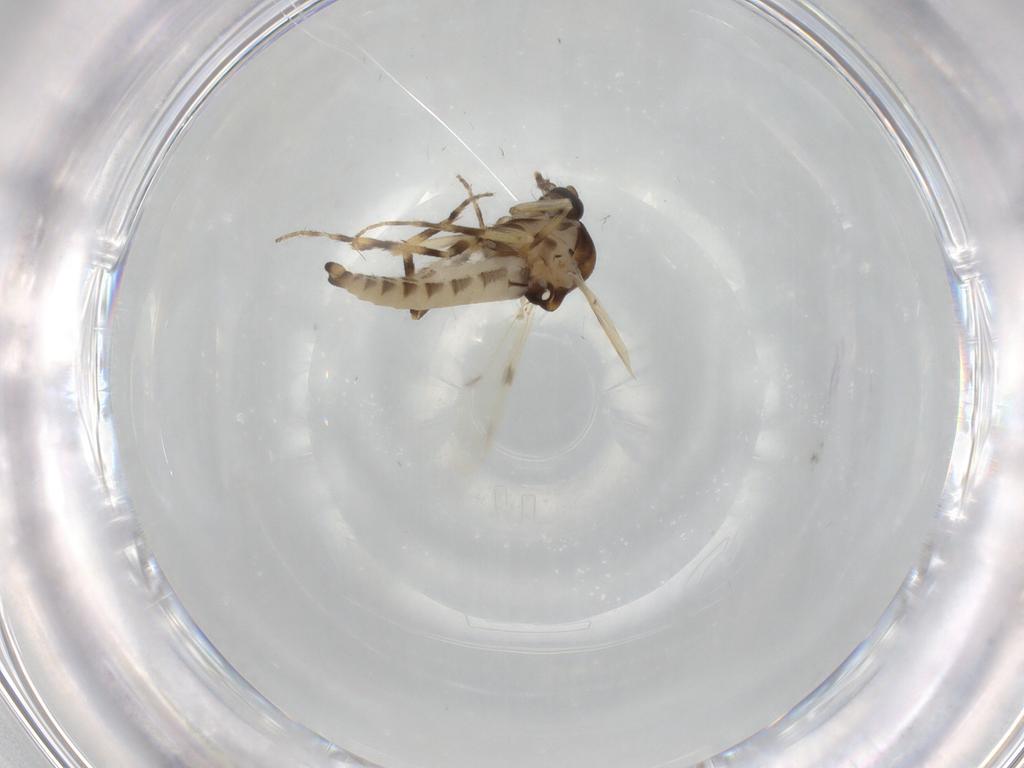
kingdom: Animalia
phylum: Arthropoda
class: Insecta
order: Diptera
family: Ceratopogonidae
